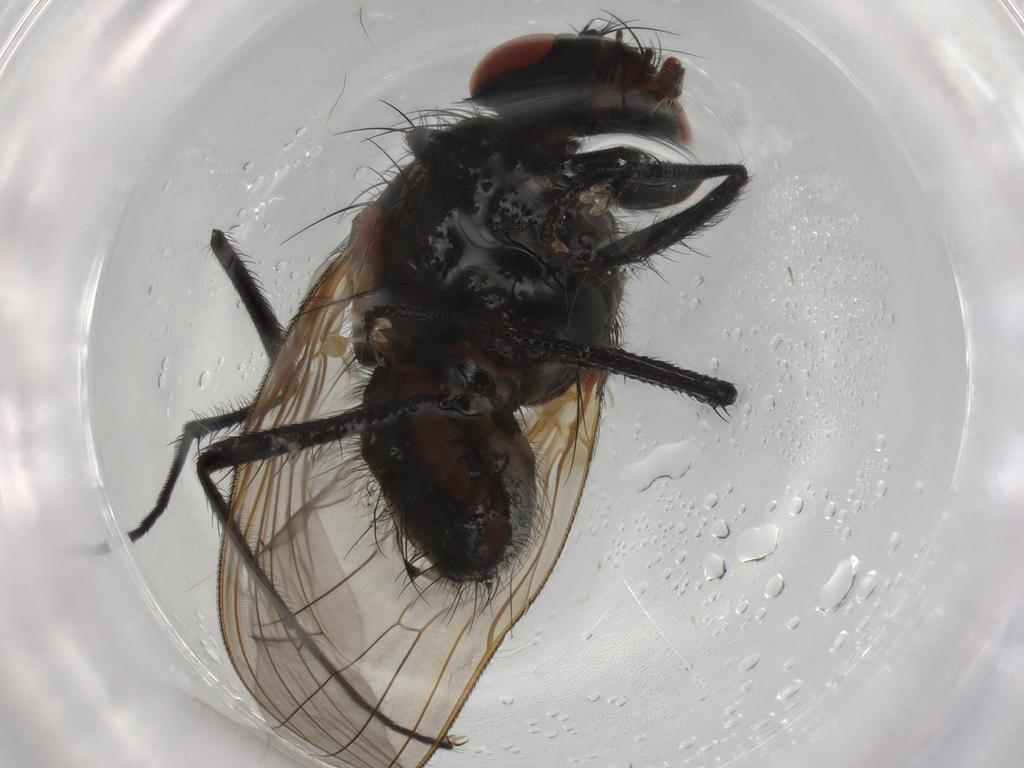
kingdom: Animalia
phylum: Arthropoda
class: Insecta
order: Diptera
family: Anthomyiidae
